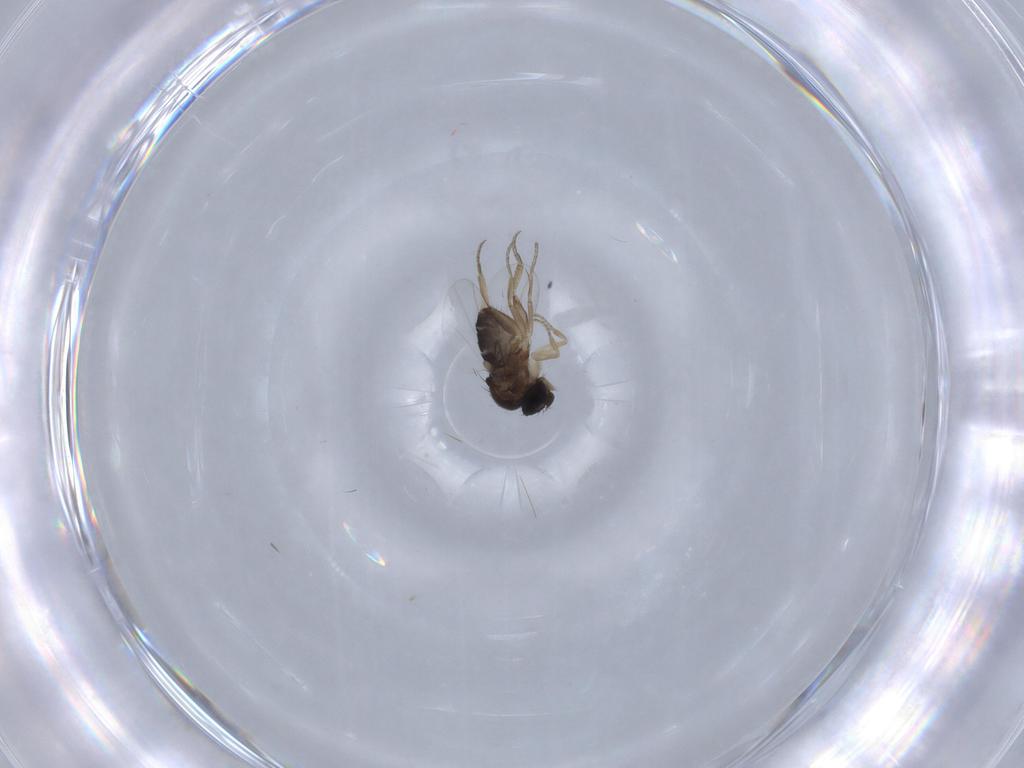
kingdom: Animalia
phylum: Arthropoda
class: Insecta
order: Diptera
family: Phoridae
